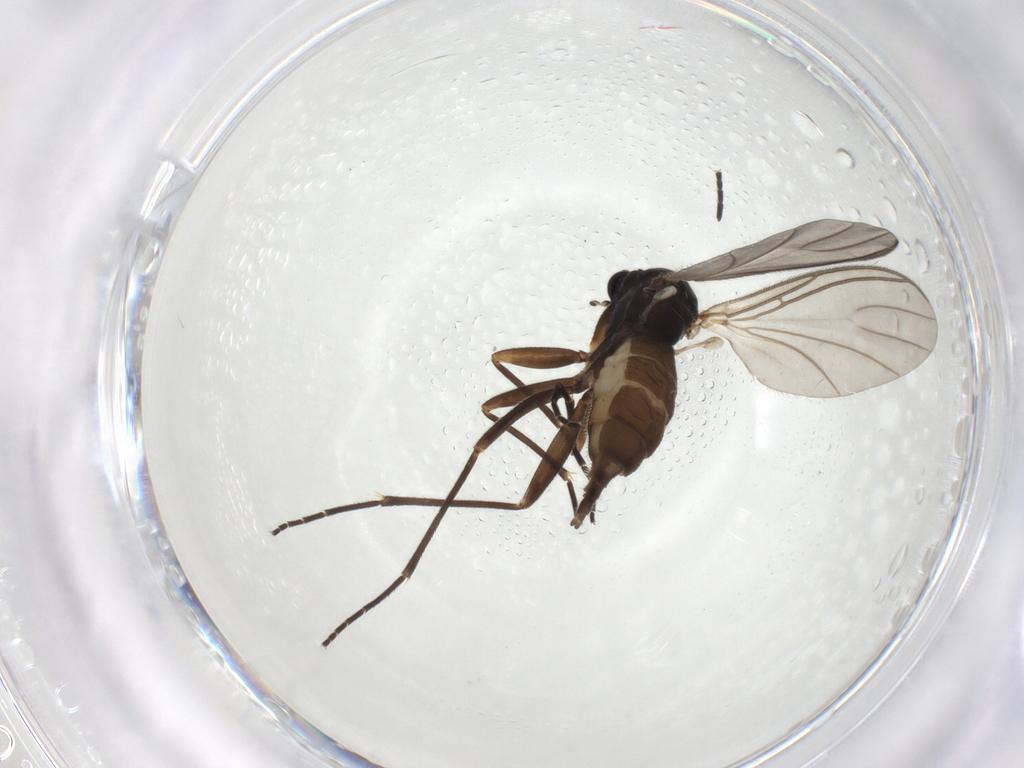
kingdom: Animalia
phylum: Arthropoda
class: Insecta
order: Diptera
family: Sciaridae
